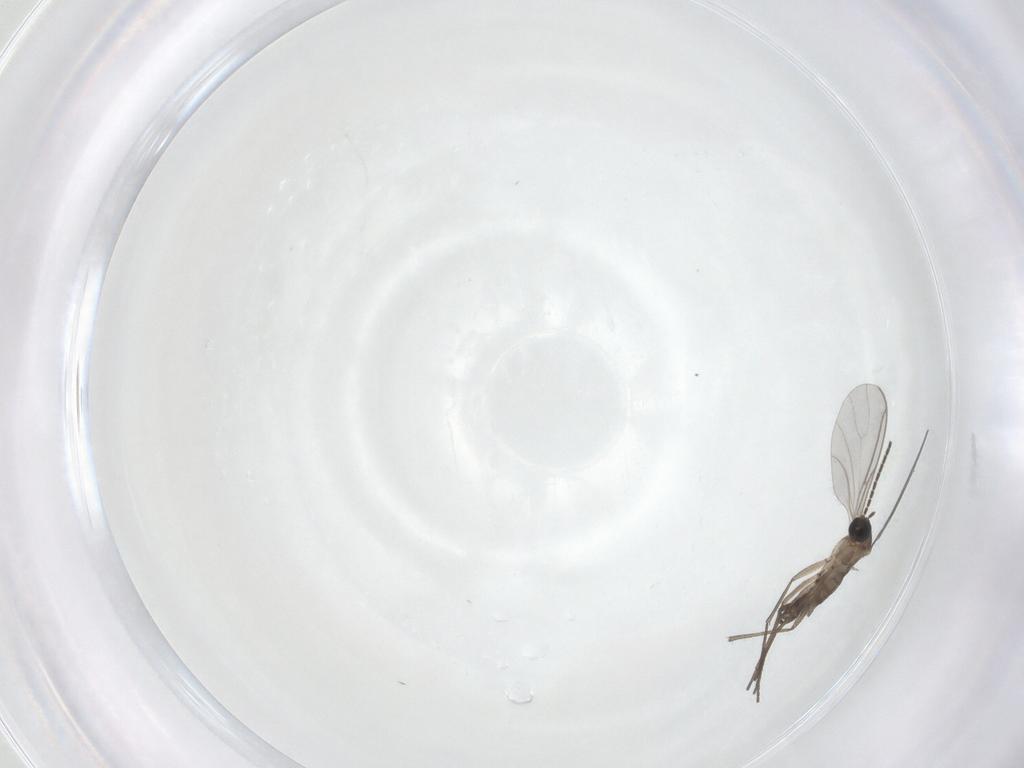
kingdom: Animalia
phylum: Arthropoda
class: Insecta
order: Diptera
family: Sciaridae
